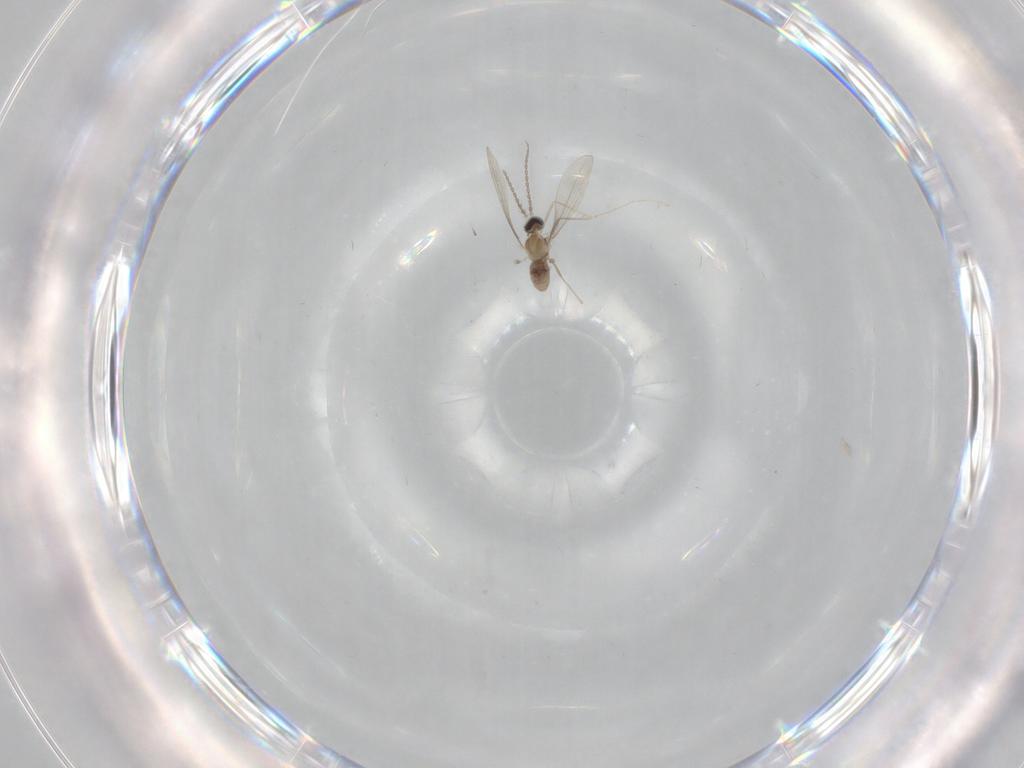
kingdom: Animalia
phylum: Arthropoda
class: Insecta
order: Diptera
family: Cecidomyiidae
